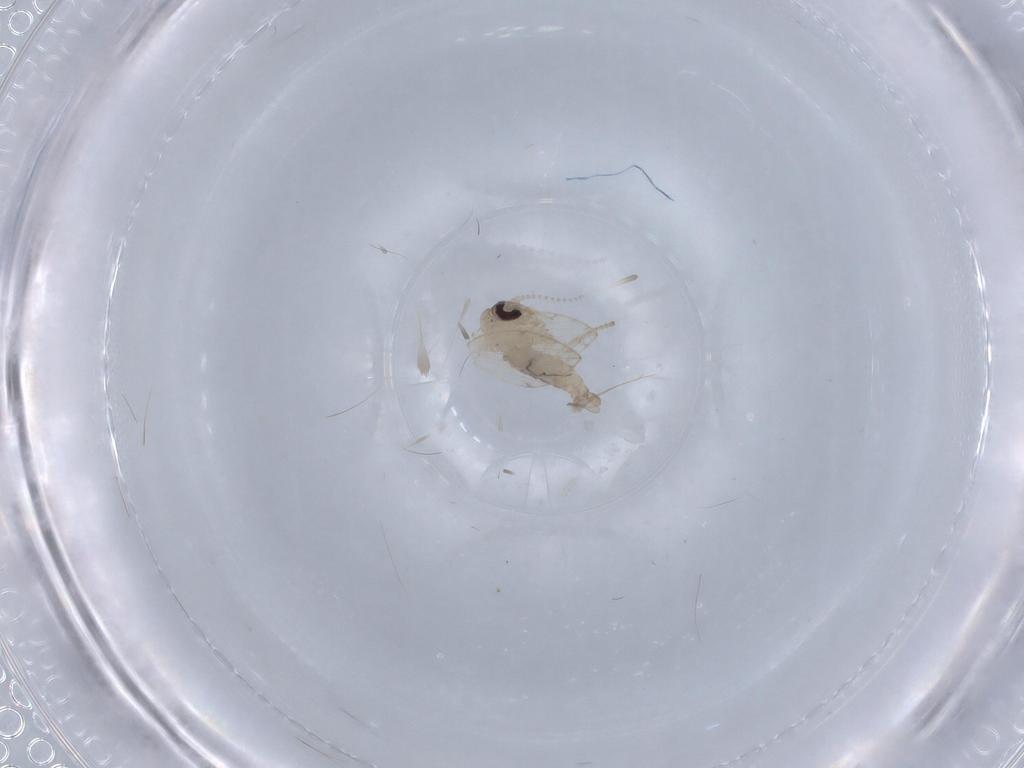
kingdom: Animalia
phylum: Arthropoda
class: Insecta
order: Diptera
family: Psychodidae
